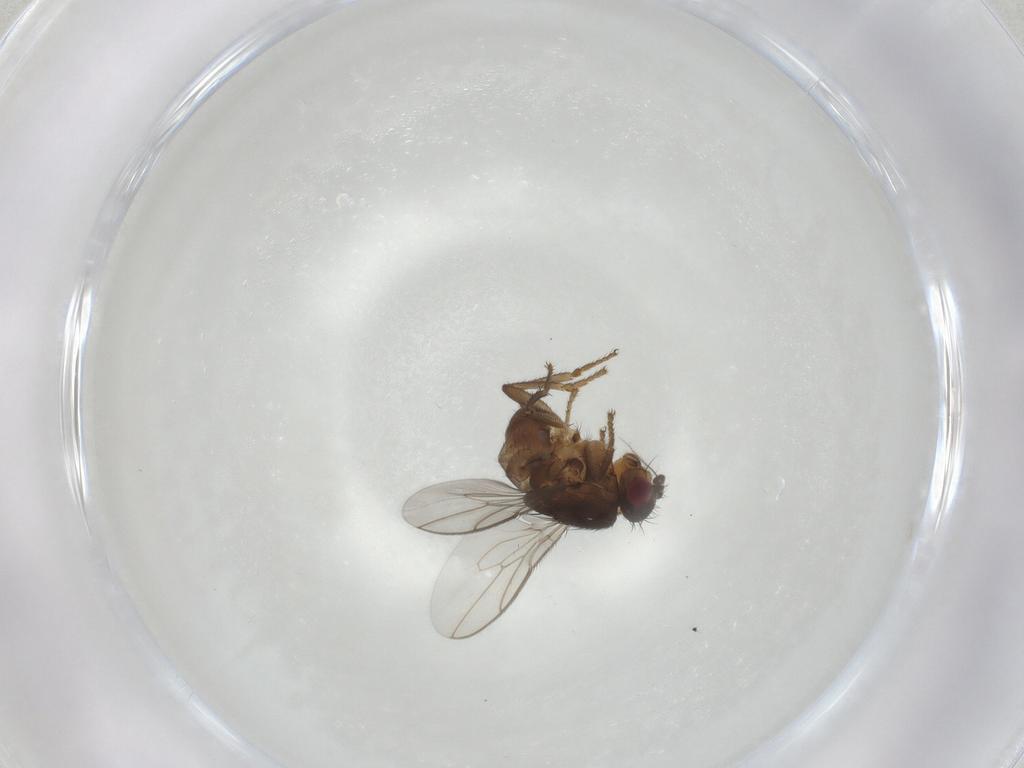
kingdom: Animalia
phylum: Arthropoda
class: Insecta
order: Diptera
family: Sphaeroceridae
